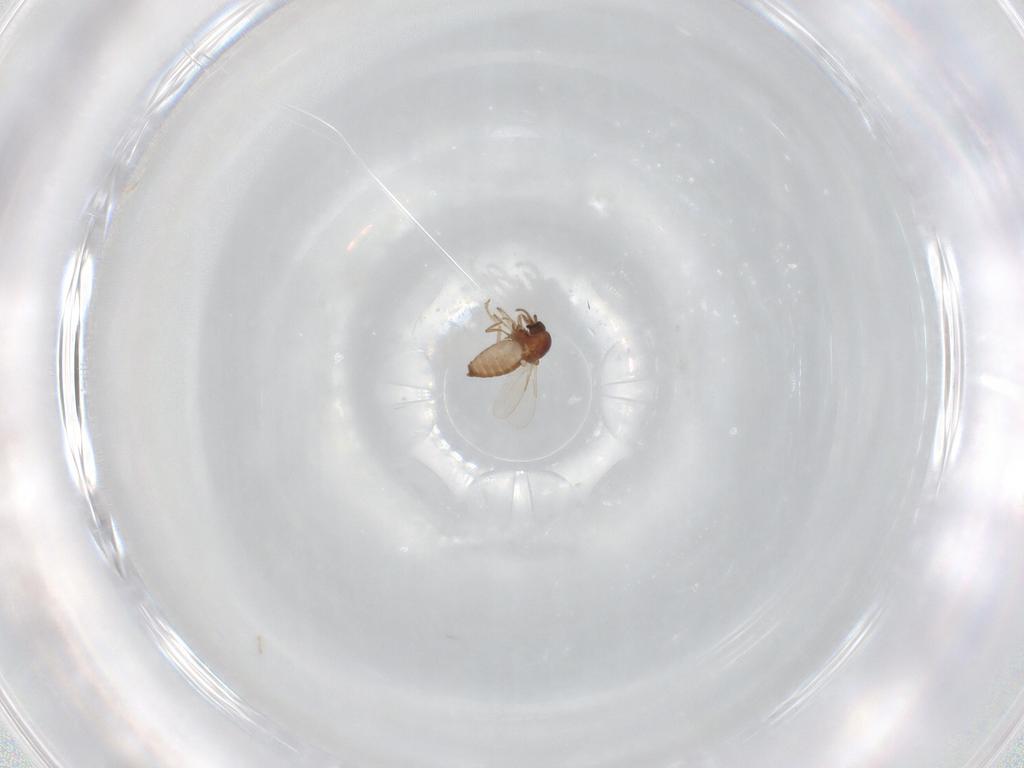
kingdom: Animalia
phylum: Arthropoda
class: Insecta
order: Diptera
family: Ceratopogonidae
